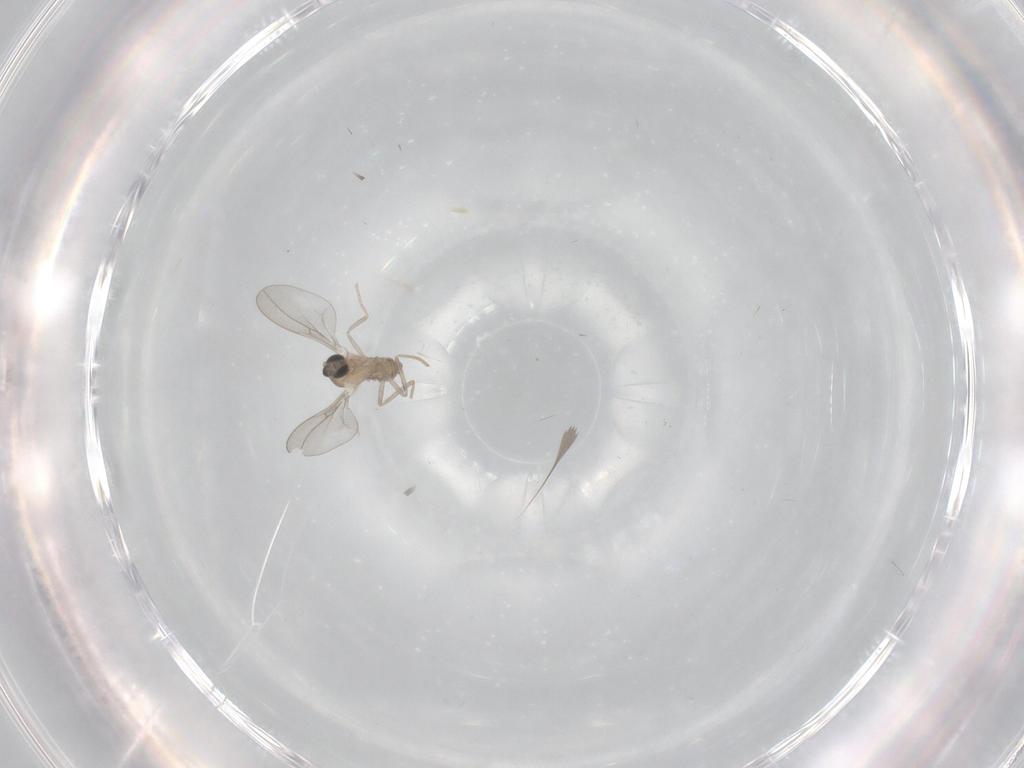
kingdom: Animalia
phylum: Arthropoda
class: Insecta
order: Diptera
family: Cecidomyiidae
